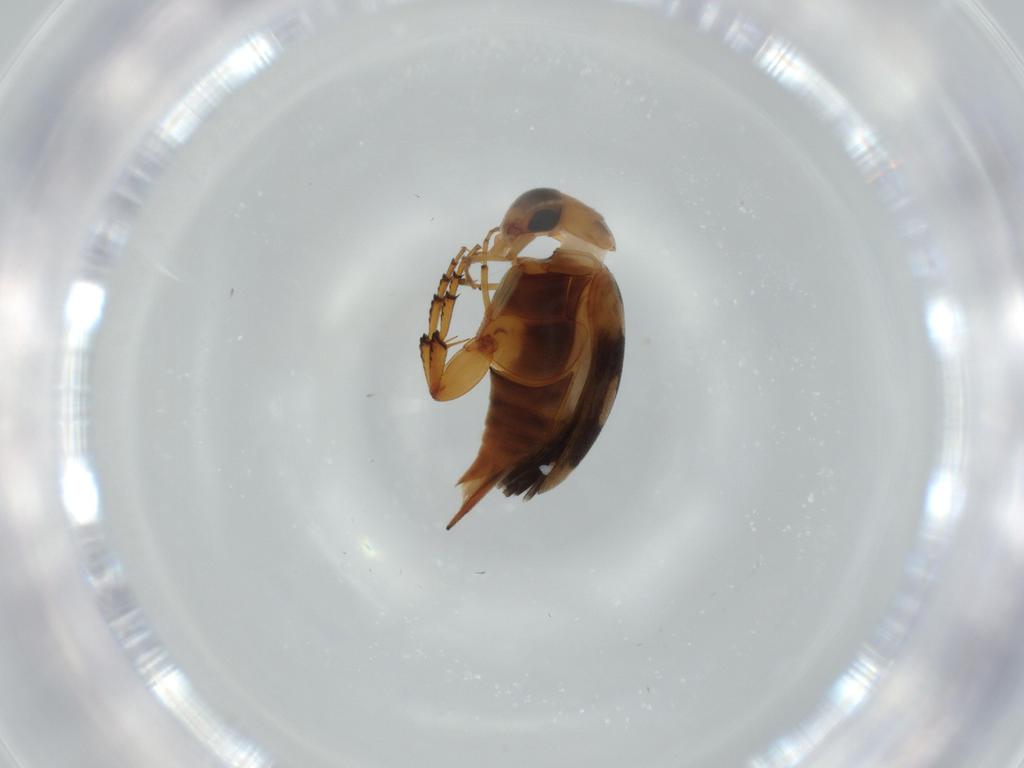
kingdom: Animalia
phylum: Arthropoda
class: Insecta
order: Coleoptera
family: Mordellidae
